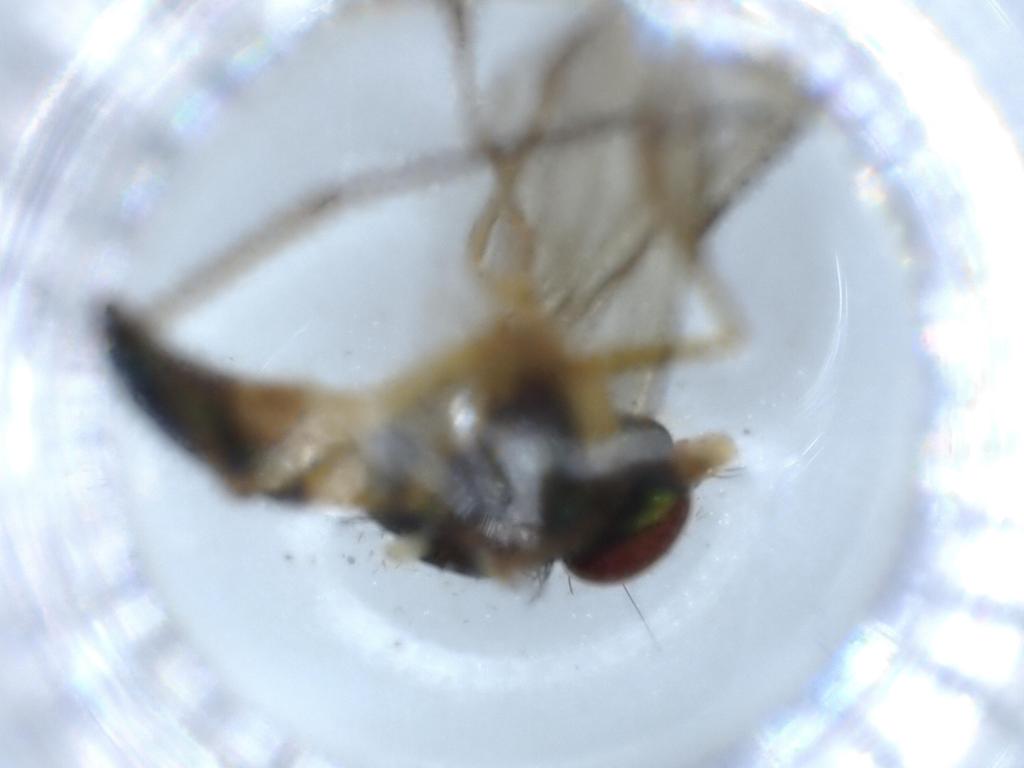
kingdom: Animalia
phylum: Arthropoda
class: Insecta
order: Diptera
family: Dolichopodidae
